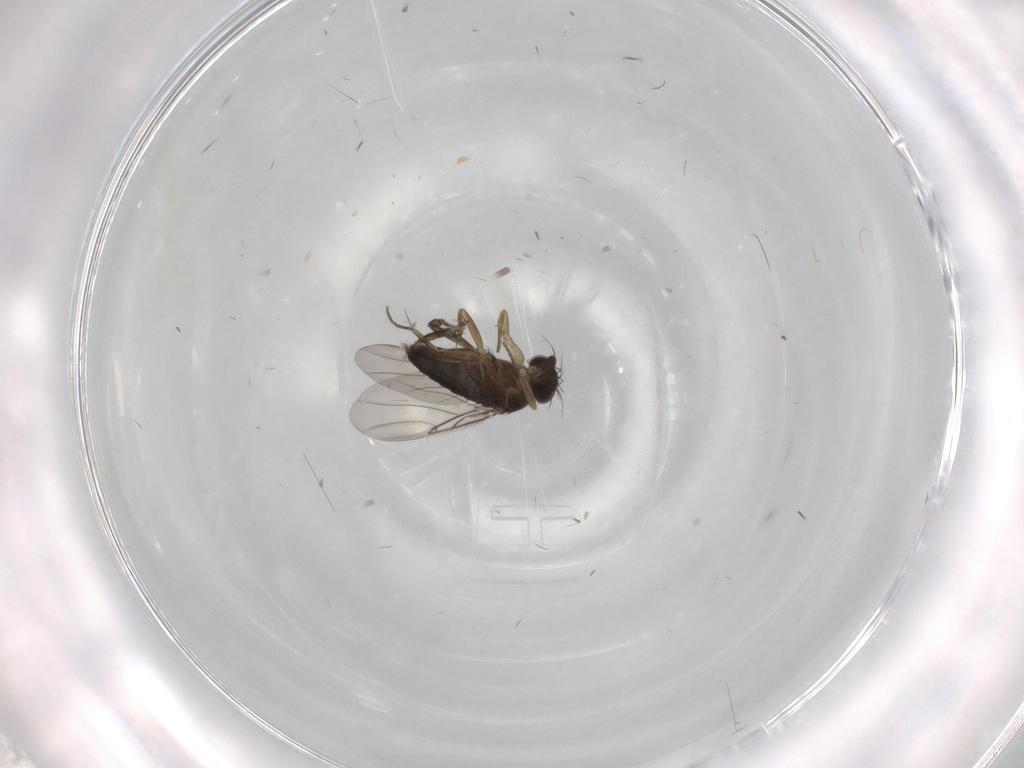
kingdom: Animalia
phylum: Arthropoda
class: Insecta
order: Diptera
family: Phoridae
